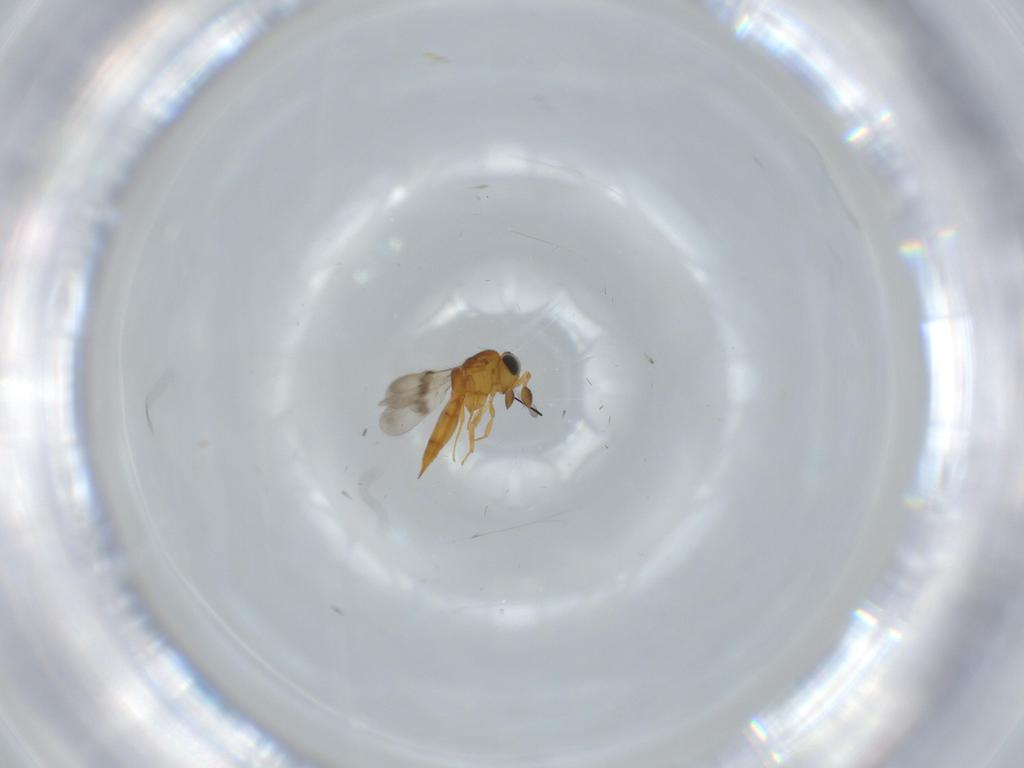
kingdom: Animalia
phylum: Arthropoda
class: Insecta
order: Hymenoptera
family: Scelionidae
